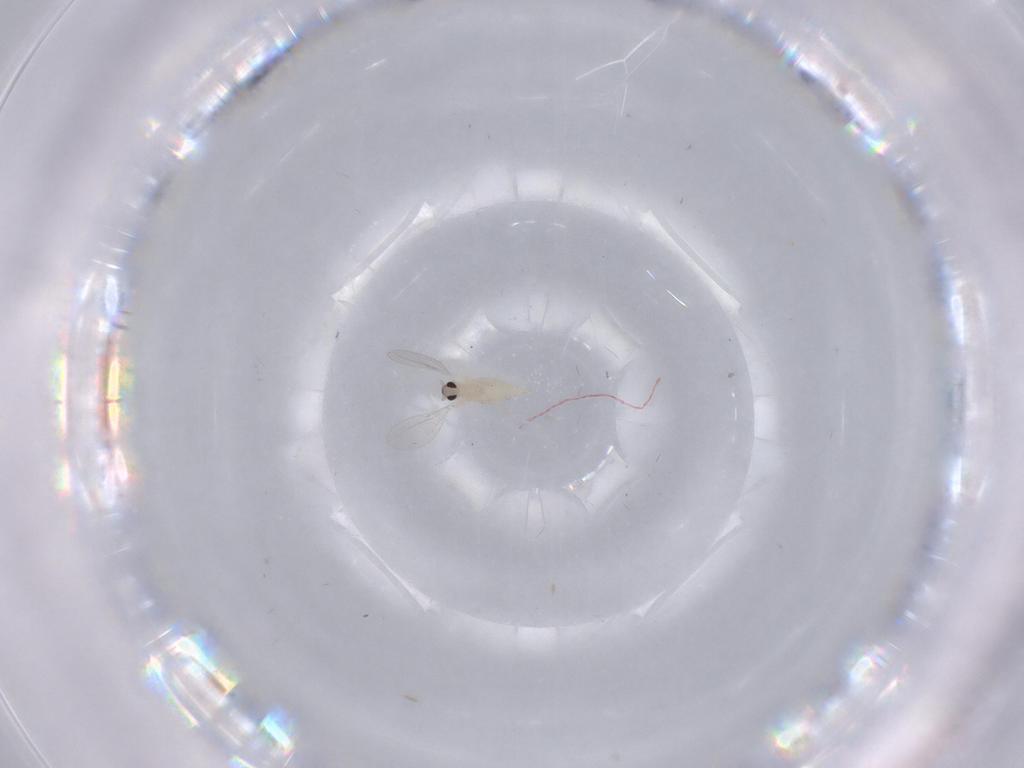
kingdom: Animalia
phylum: Arthropoda
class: Insecta
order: Diptera
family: Cecidomyiidae
